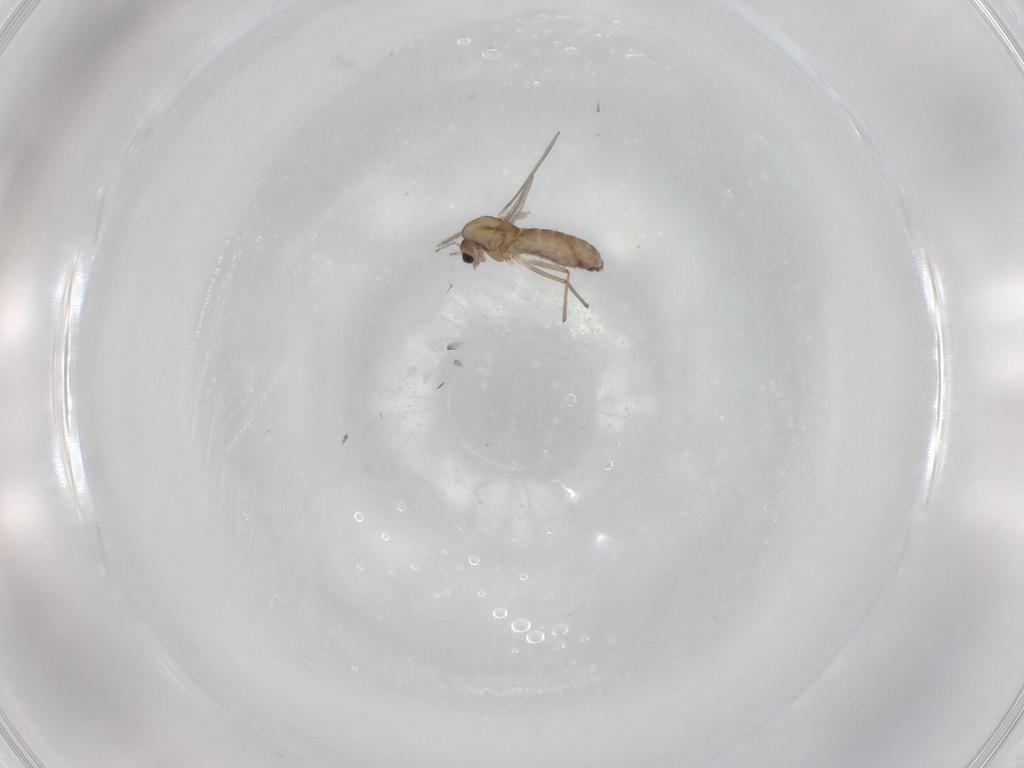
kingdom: Animalia
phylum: Arthropoda
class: Insecta
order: Diptera
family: Chironomidae
